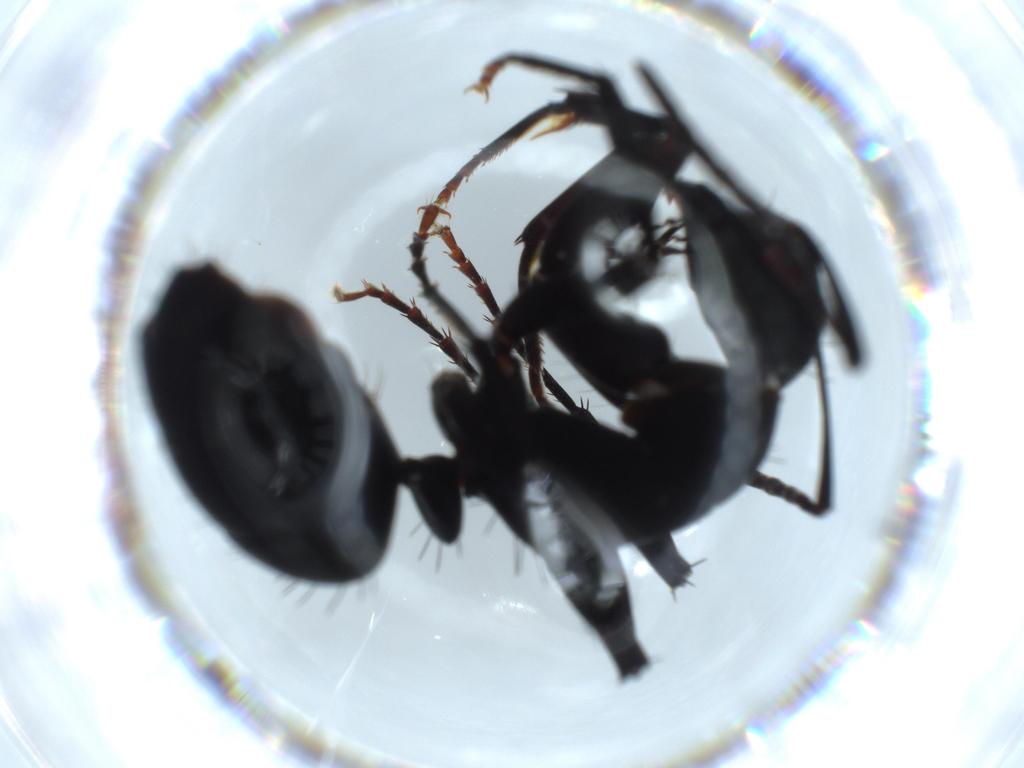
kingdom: Animalia
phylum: Arthropoda
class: Insecta
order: Hymenoptera
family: Formicidae
